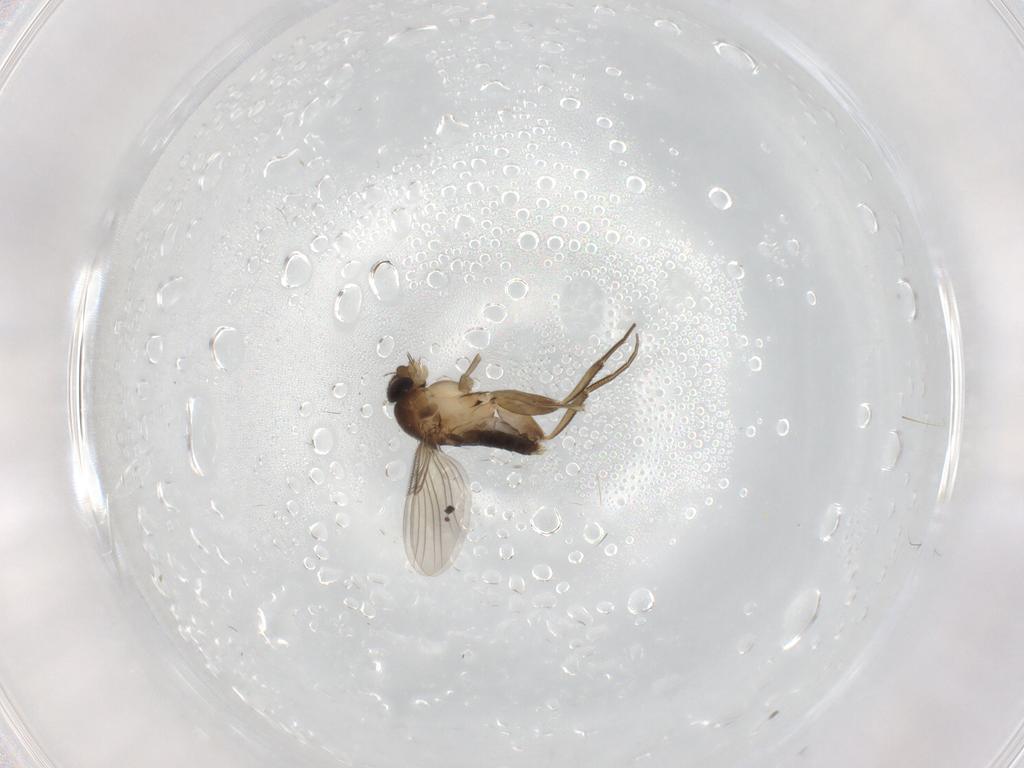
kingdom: Animalia
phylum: Arthropoda
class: Insecta
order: Diptera
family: Phoridae
